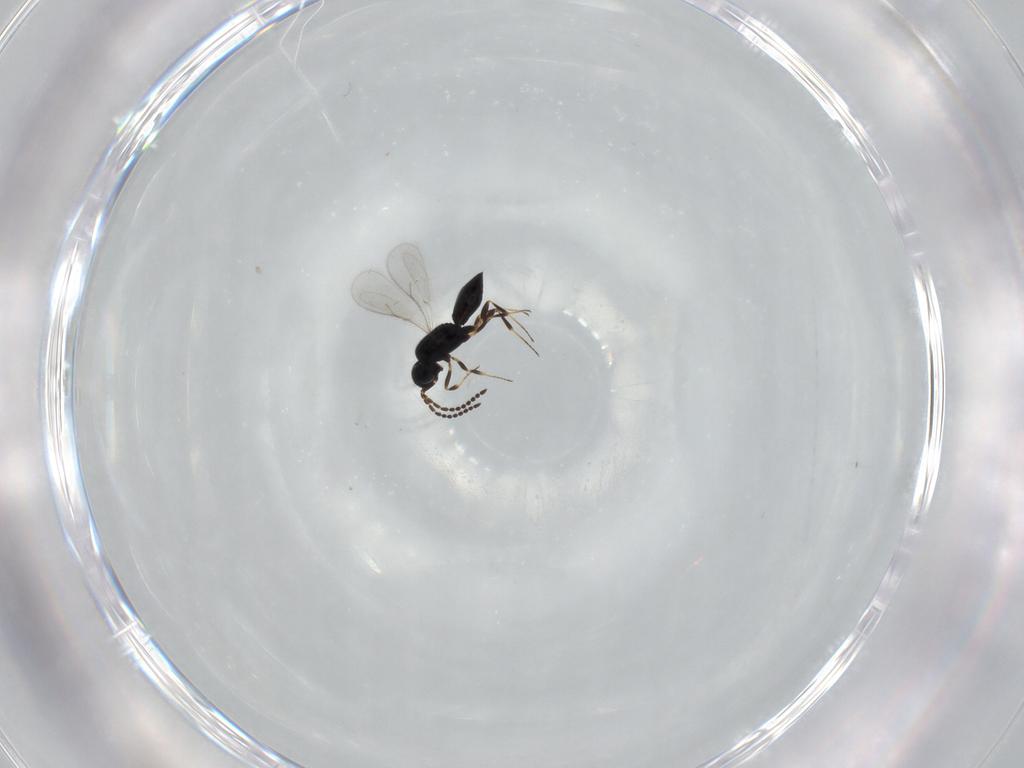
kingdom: Animalia
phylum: Arthropoda
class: Insecta
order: Hymenoptera
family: Scelionidae
